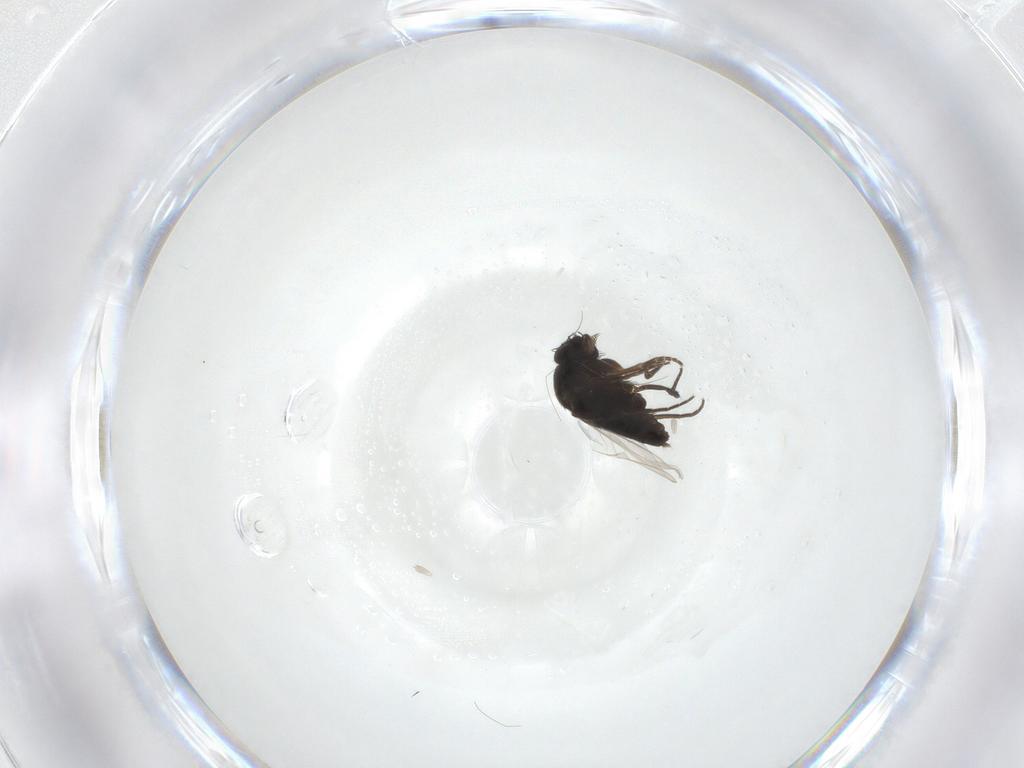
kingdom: Animalia
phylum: Arthropoda
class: Insecta
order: Diptera
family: Phoridae
